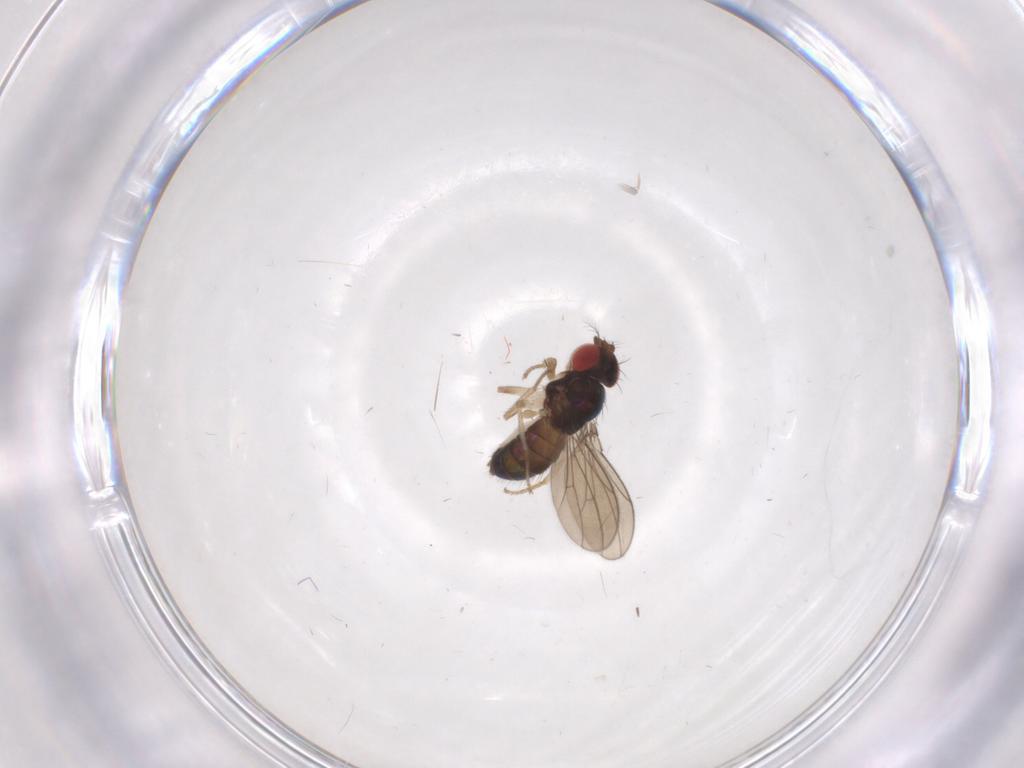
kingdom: Animalia
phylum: Arthropoda
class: Insecta
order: Diptera
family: Drosophilidae
